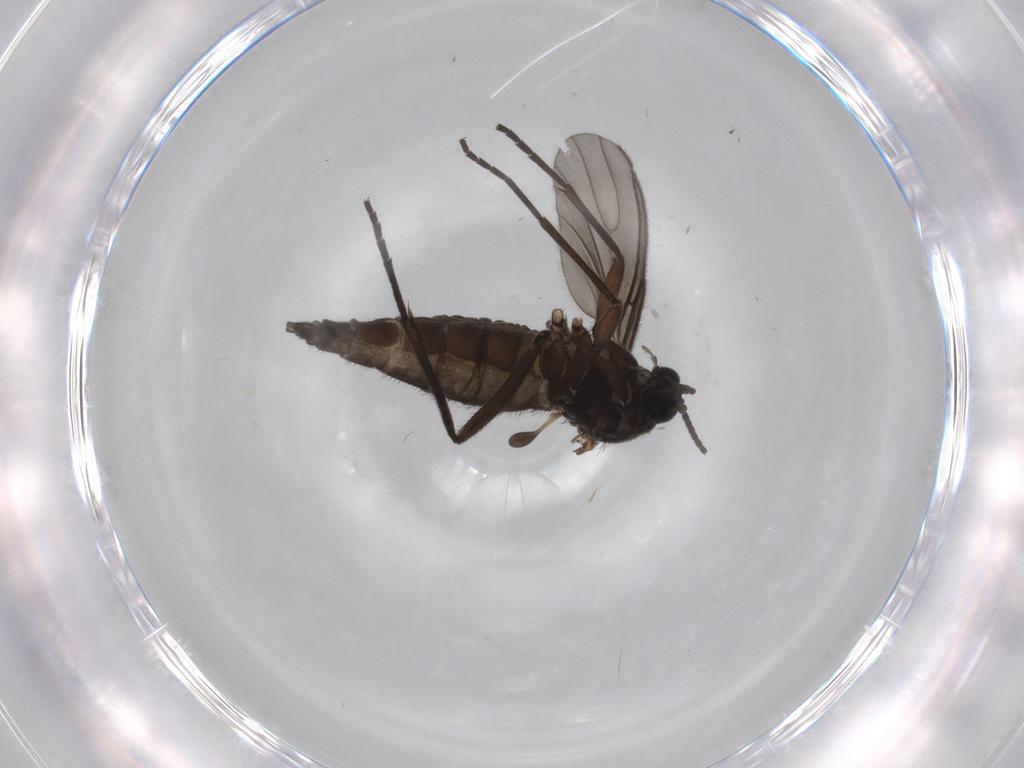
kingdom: Animalia
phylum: Arthropoda
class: Insecta
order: Diptera
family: Sciaridae
